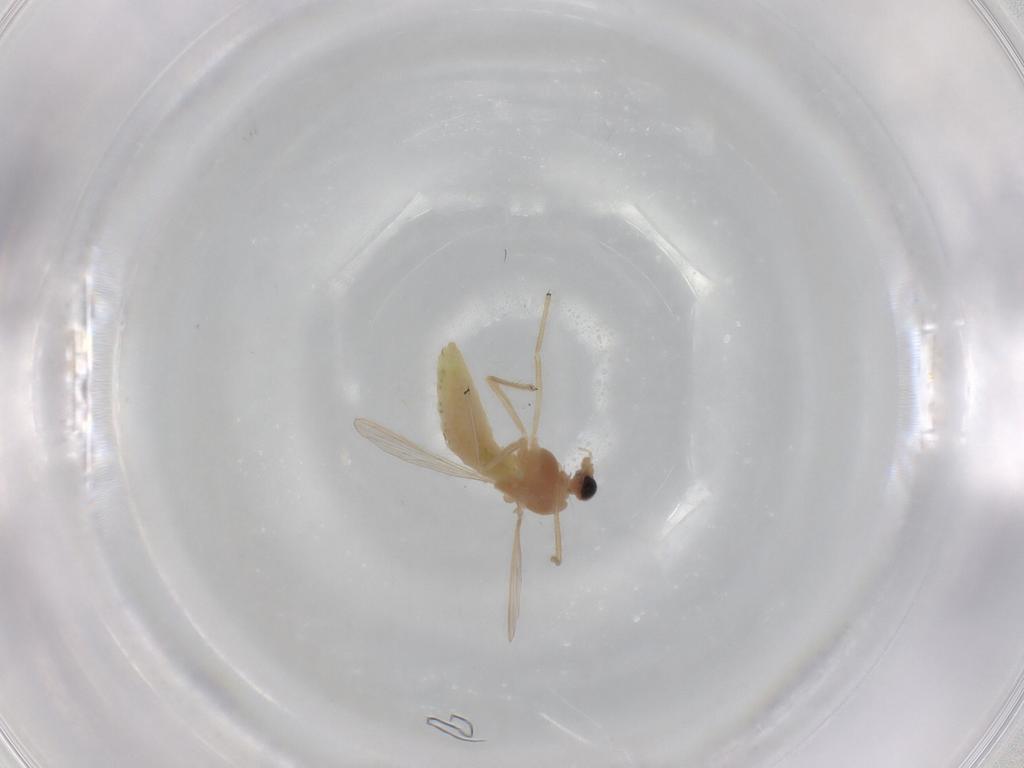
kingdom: Animalia
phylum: Arthropoda
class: Insecta
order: Diptera
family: Chironomidae
